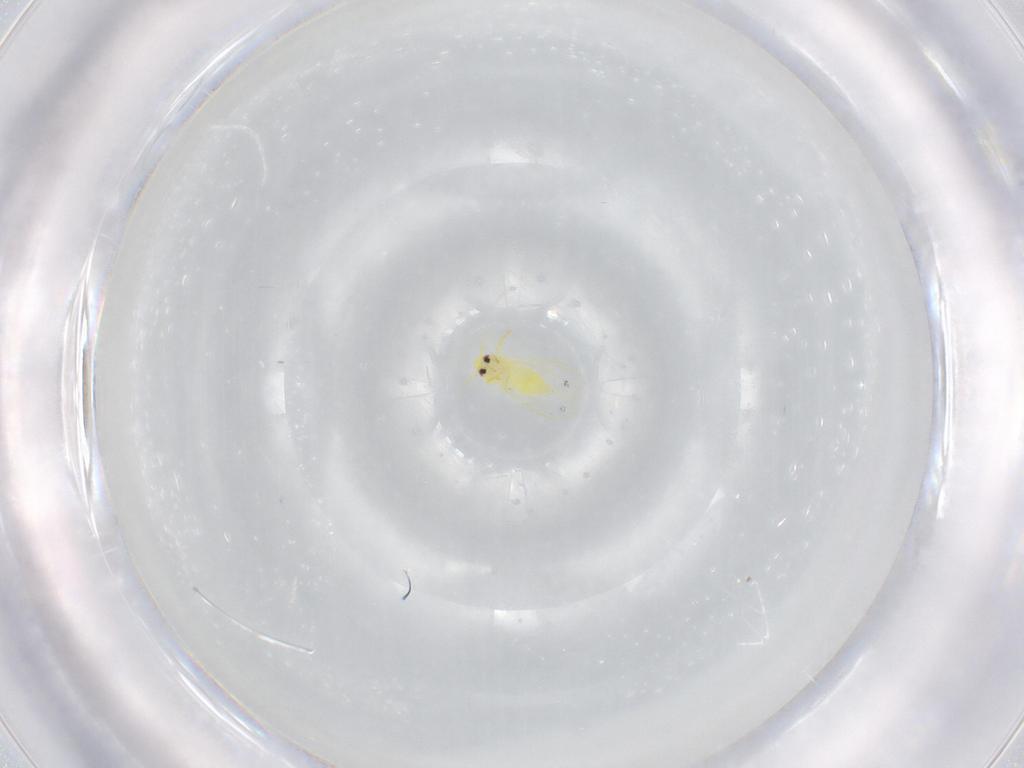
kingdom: Animalia
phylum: Arthropoda
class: Insecta
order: Hemiptera
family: Aleyrodidae
